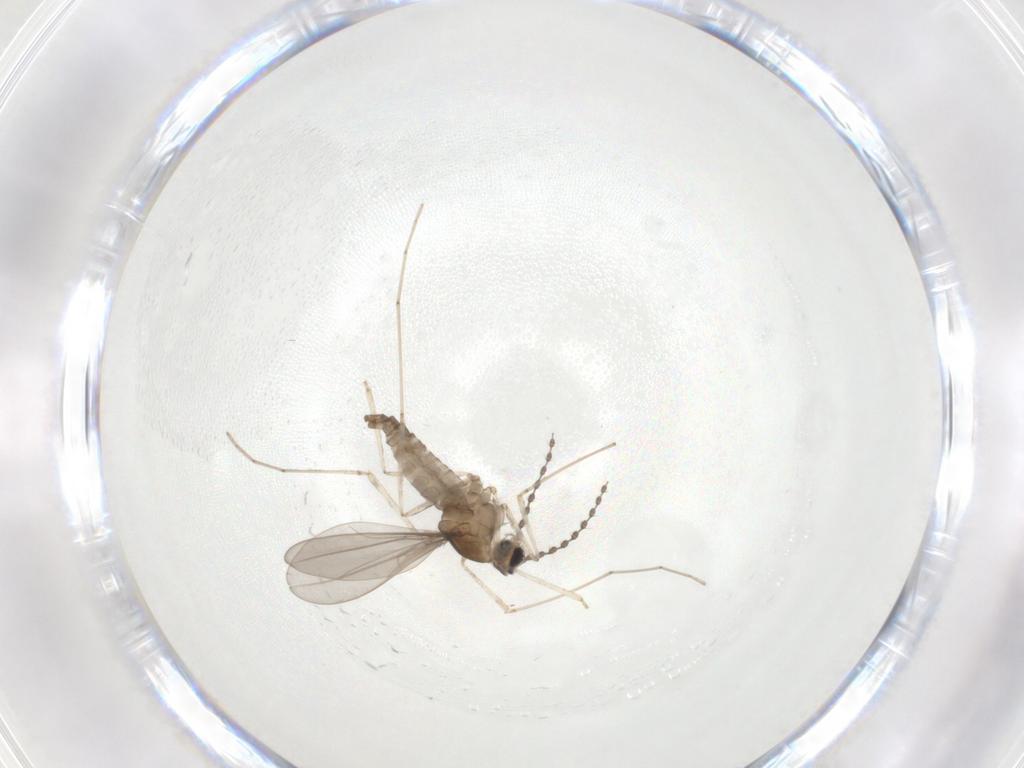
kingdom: Animalia
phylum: Arthropoda
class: Insecta
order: Diptera
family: Cecidomyiidae
